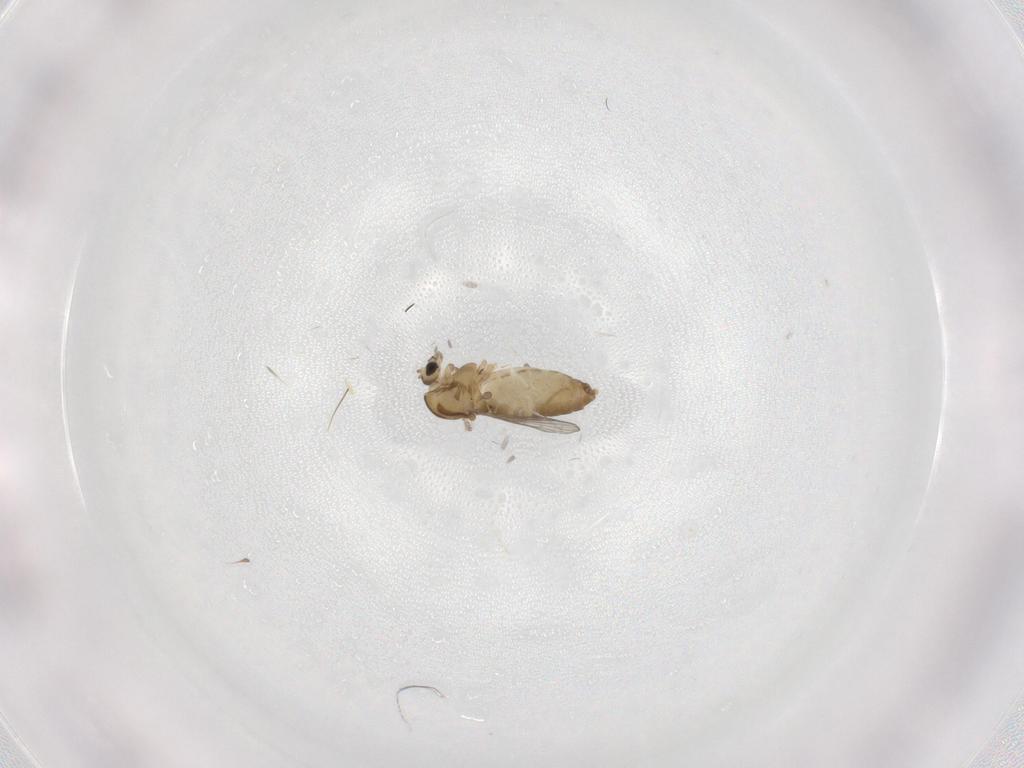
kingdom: Animalia
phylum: Arthropoda
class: Insecta
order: Diptera
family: Chironomidae
